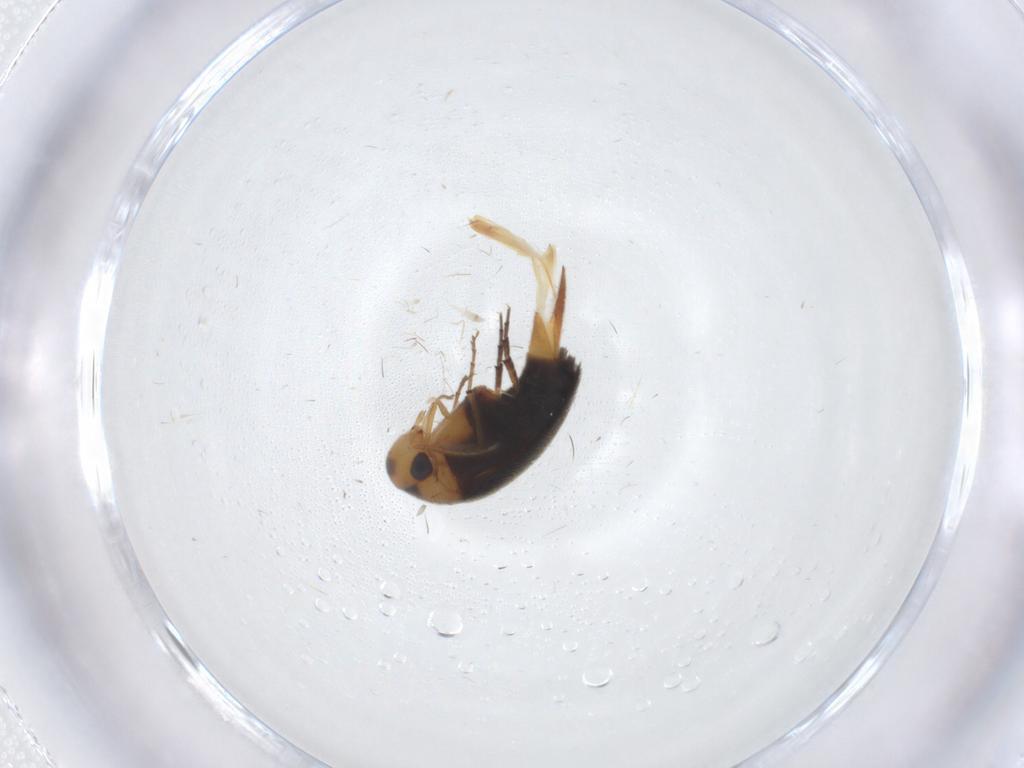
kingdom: Animalia
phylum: Arthropoda
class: Insecta
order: Coleoptera
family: Mordellidae
